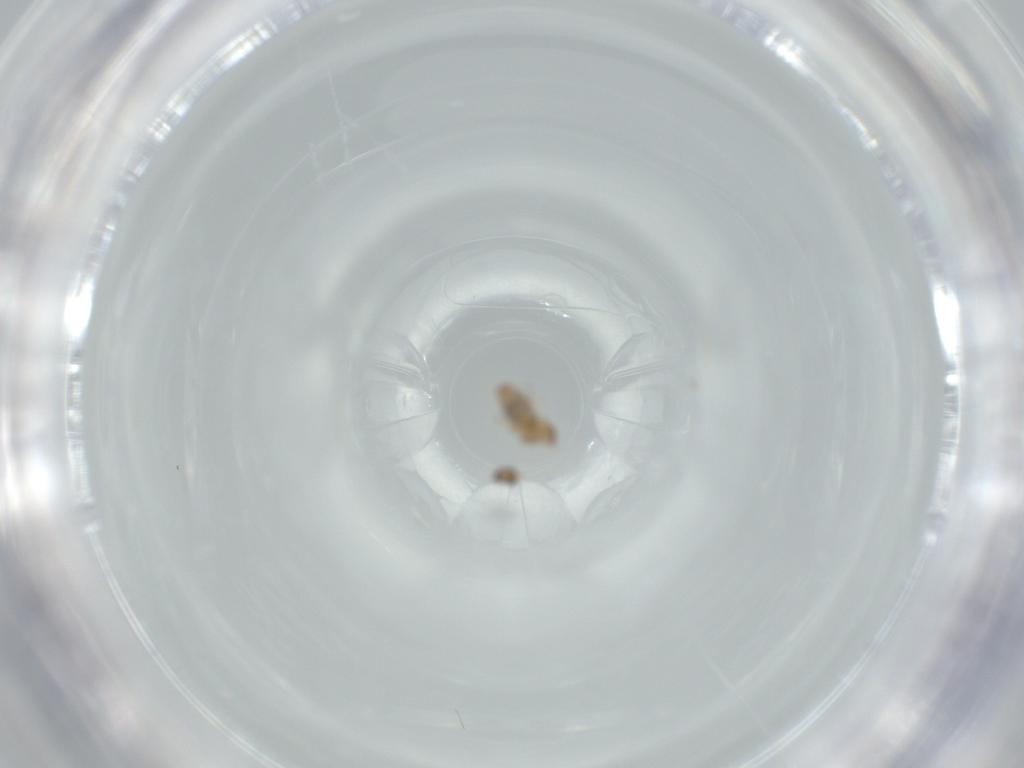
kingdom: Animalia
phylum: Arthropoda
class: Insecta
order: Diptera
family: Cecidomyiidae
